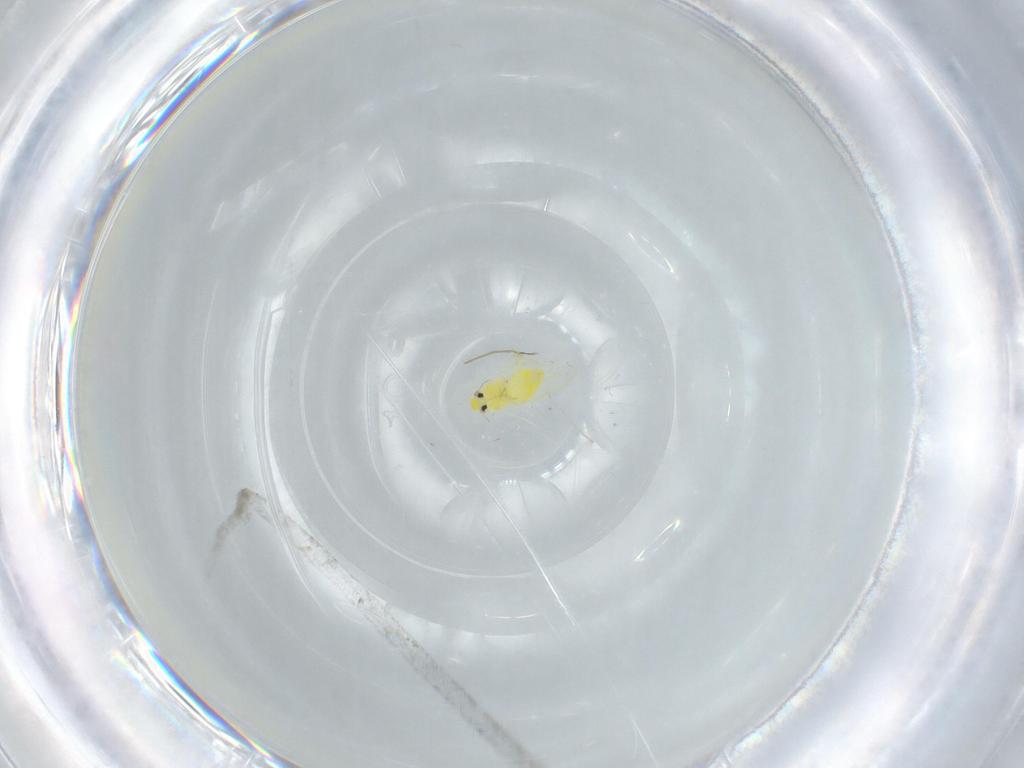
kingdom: Animalia
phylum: Arthropoda
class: Insecta
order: Hemiptera
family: Aleyrodidae
